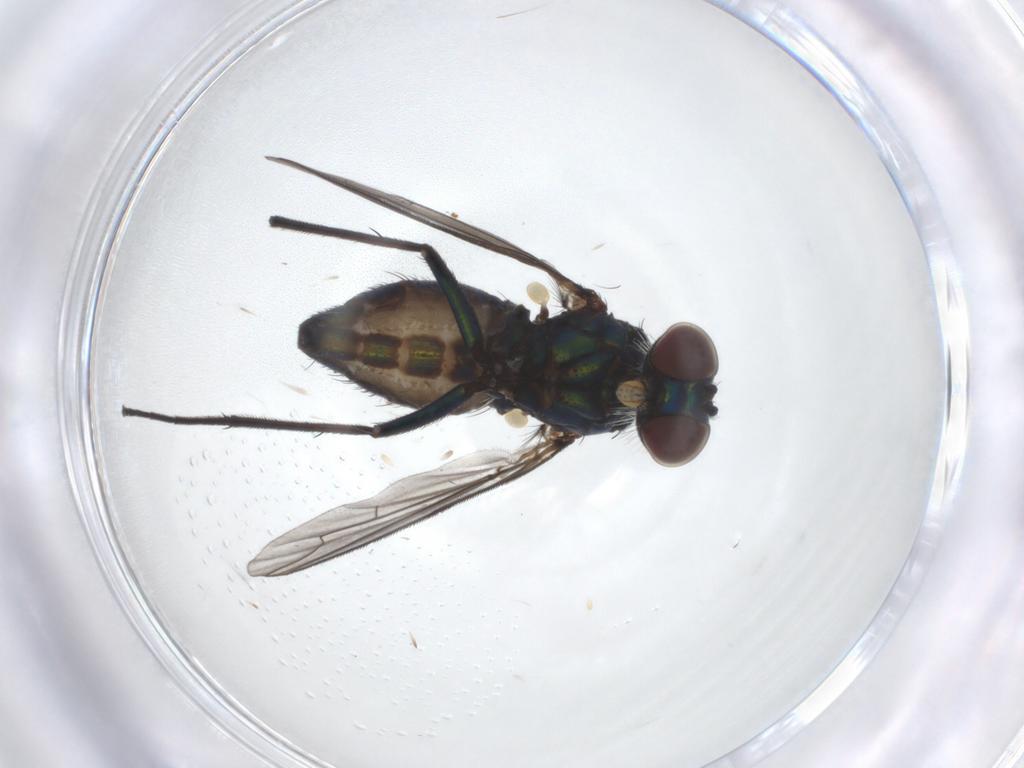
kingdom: Animalia
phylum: Arthropoda
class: Insecta
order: Diptera
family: Dolichopodidae
